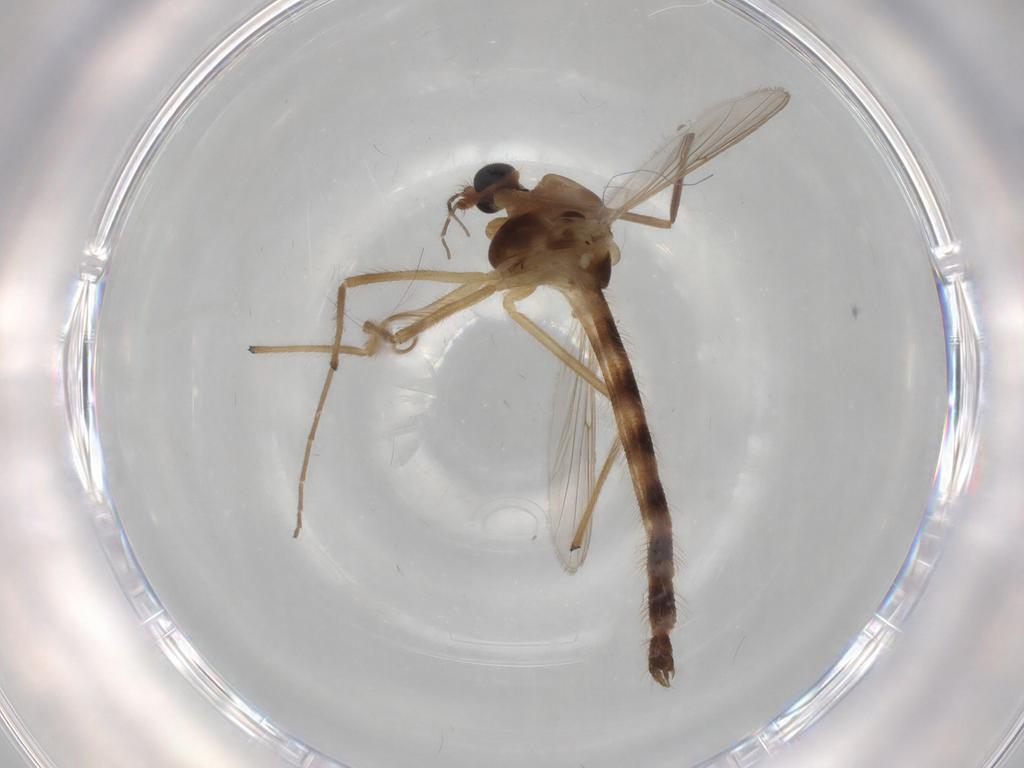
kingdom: Animalia
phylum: Arthropoda
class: Insecta
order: Diptera
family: Chironomidae
